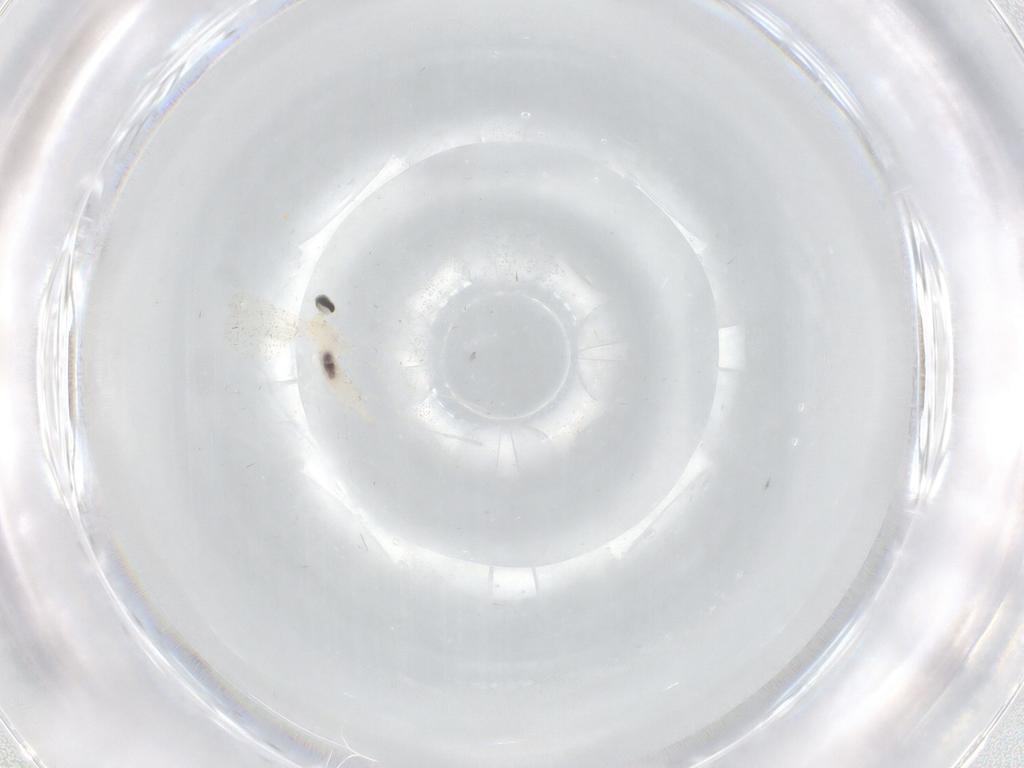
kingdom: Animalia
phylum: Arthropoda
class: Insecta
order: Diptera
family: Cecidomyiidae
